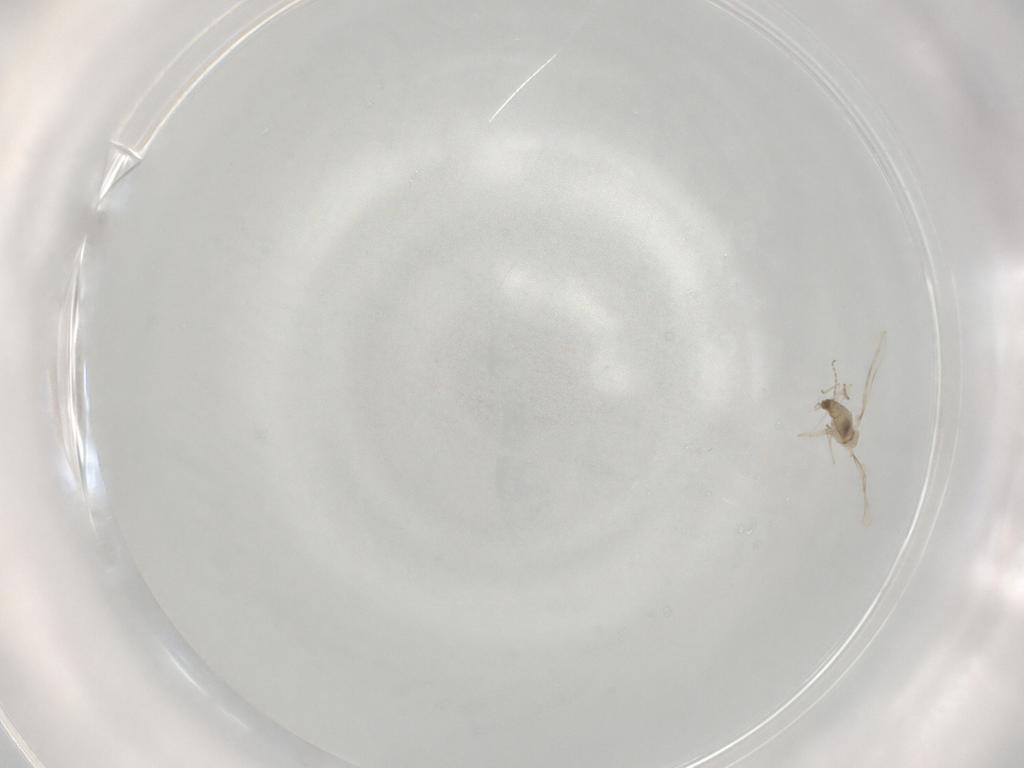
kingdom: Animalia
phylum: Arthropoda
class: Insecta
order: Diptera
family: Cecidomyiidae
